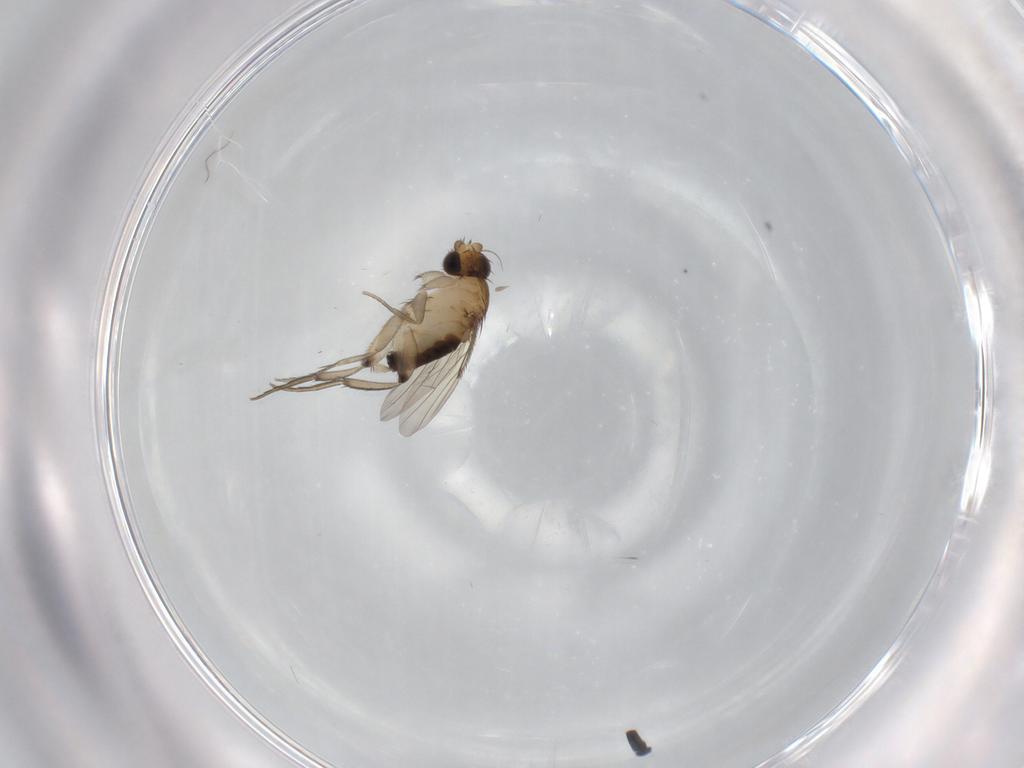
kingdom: Animalia
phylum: Arthropoda
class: Insecta
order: Diptera
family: Phoridae
